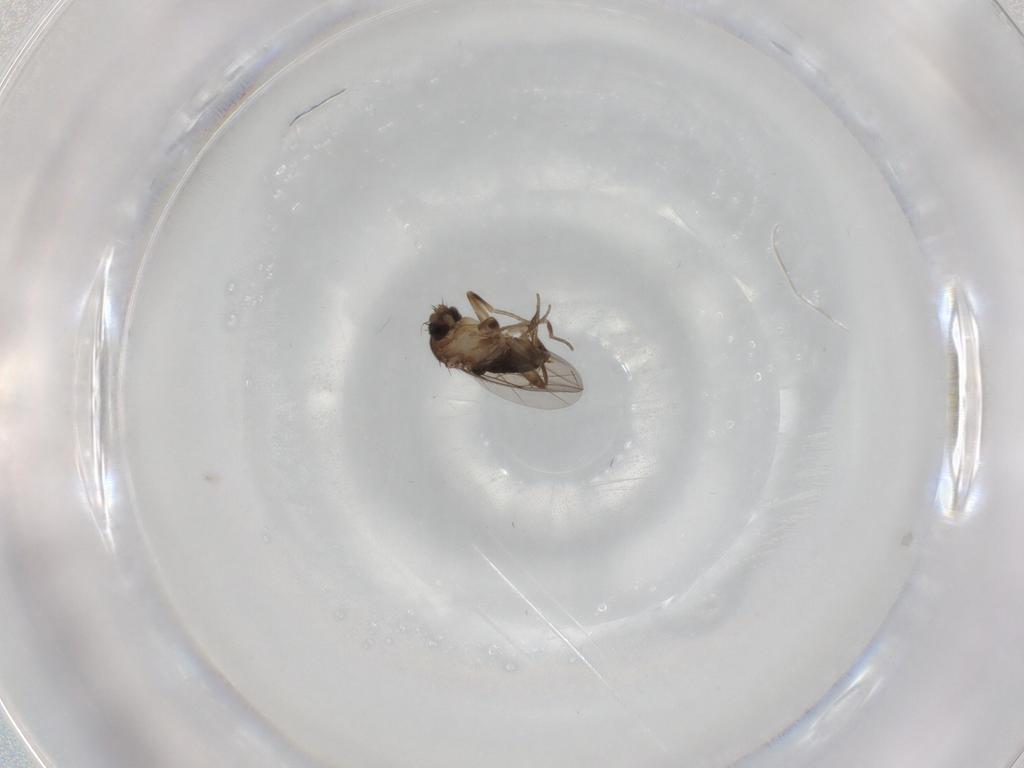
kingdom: Animalia
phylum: Arthropoda
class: Insecta
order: Diptera
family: Phoridae
